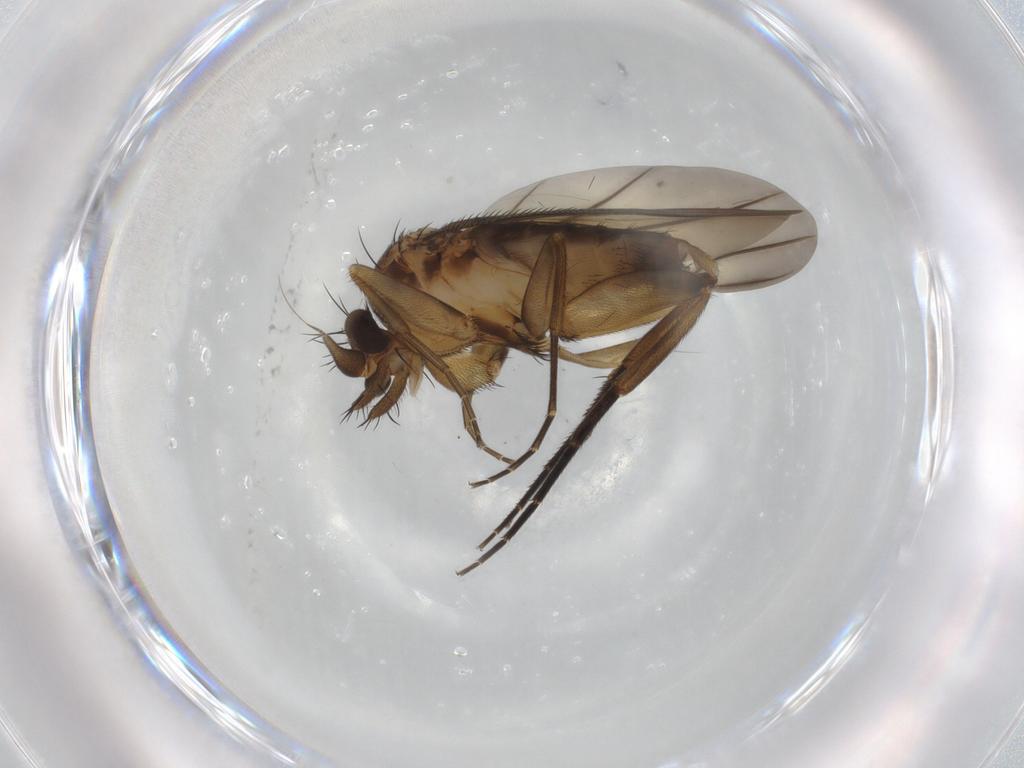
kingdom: Animalia
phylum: Arthropoda
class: Insecta
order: Diptera
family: Phoridae
